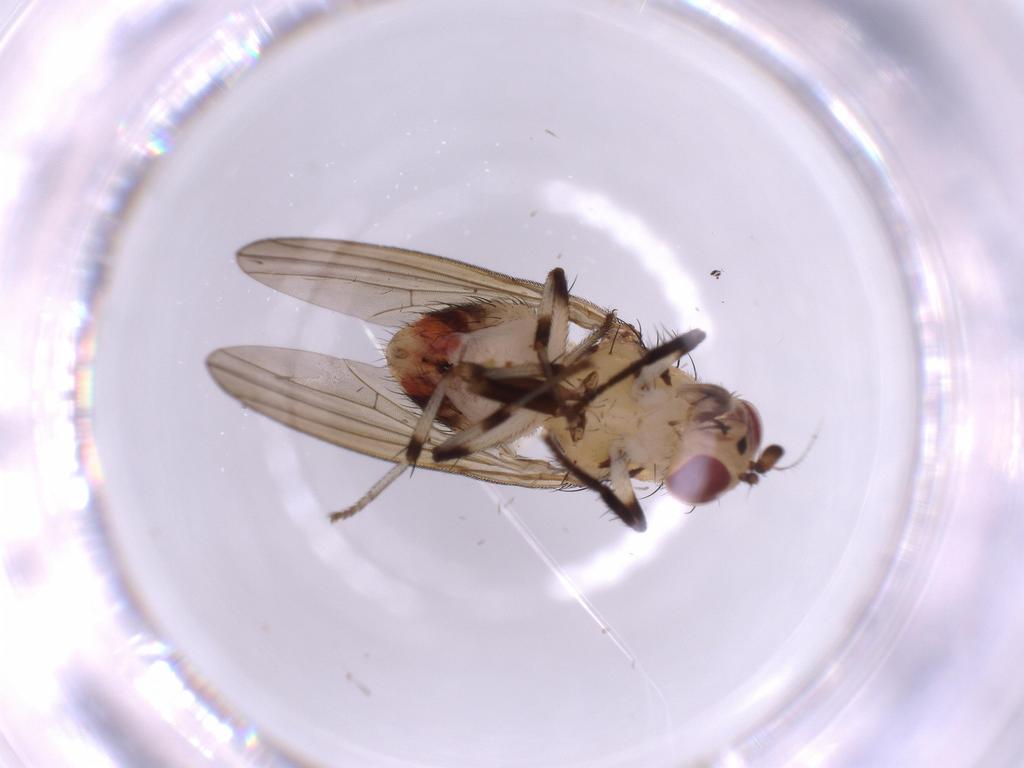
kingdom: Animalia
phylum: Arthropoda
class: Insecta
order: Diptera
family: Lauxaniidae
